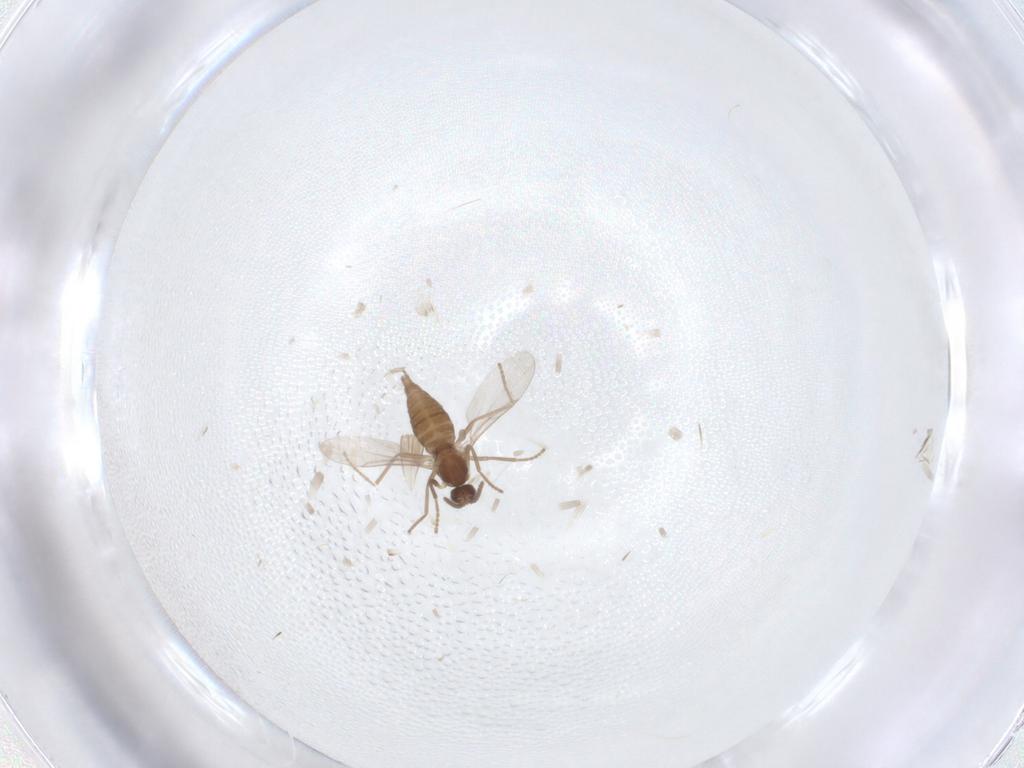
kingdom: Animalia
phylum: Arthropoda
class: Insecta
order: Diptera
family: Cecidomyiidae
